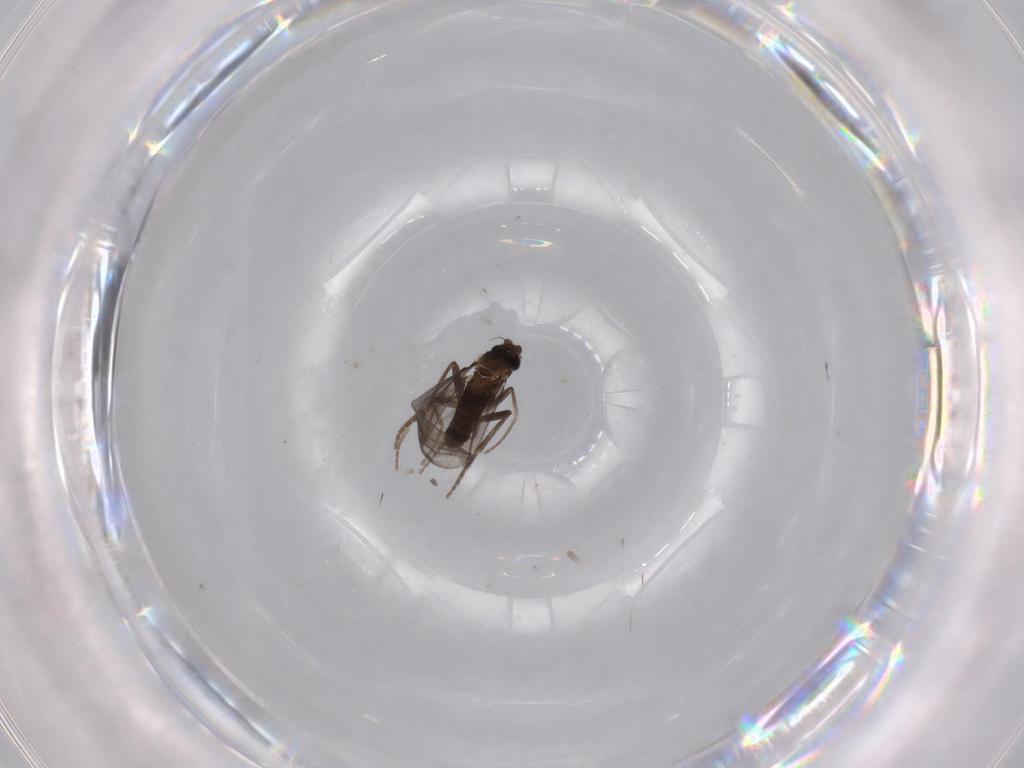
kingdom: Animalia
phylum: Arthropoda
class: Insecta
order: Diptera
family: Phoridae
